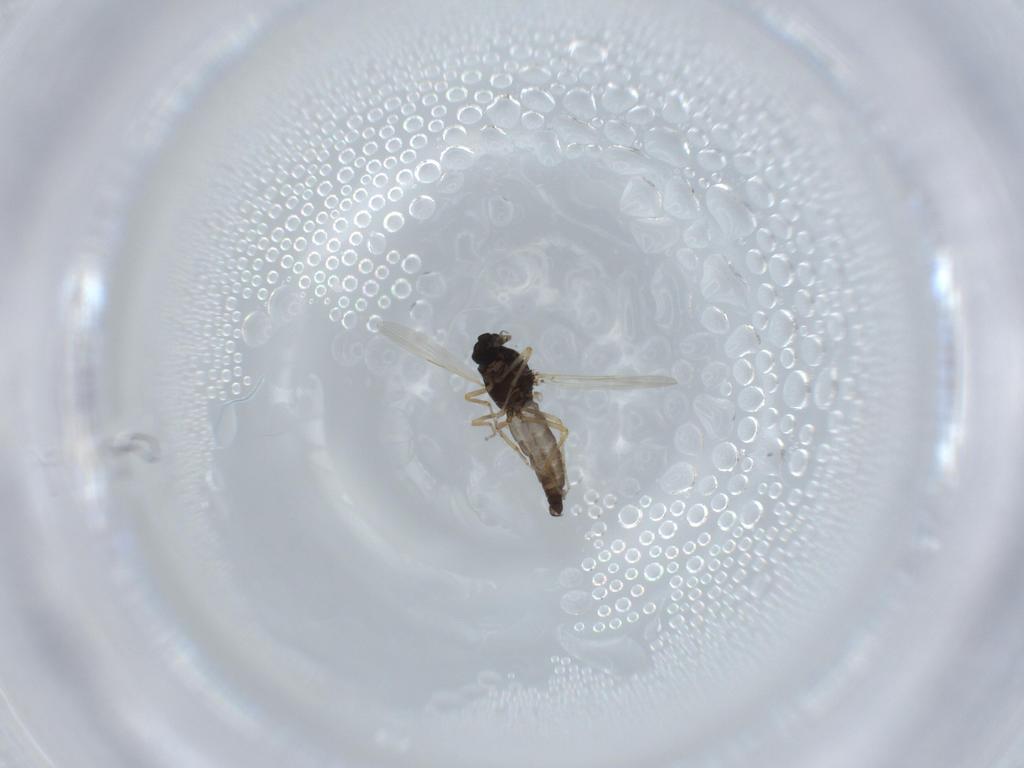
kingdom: Animalia
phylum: Arthropoda
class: Insecta
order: Diptera
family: Ceratopogonidae
